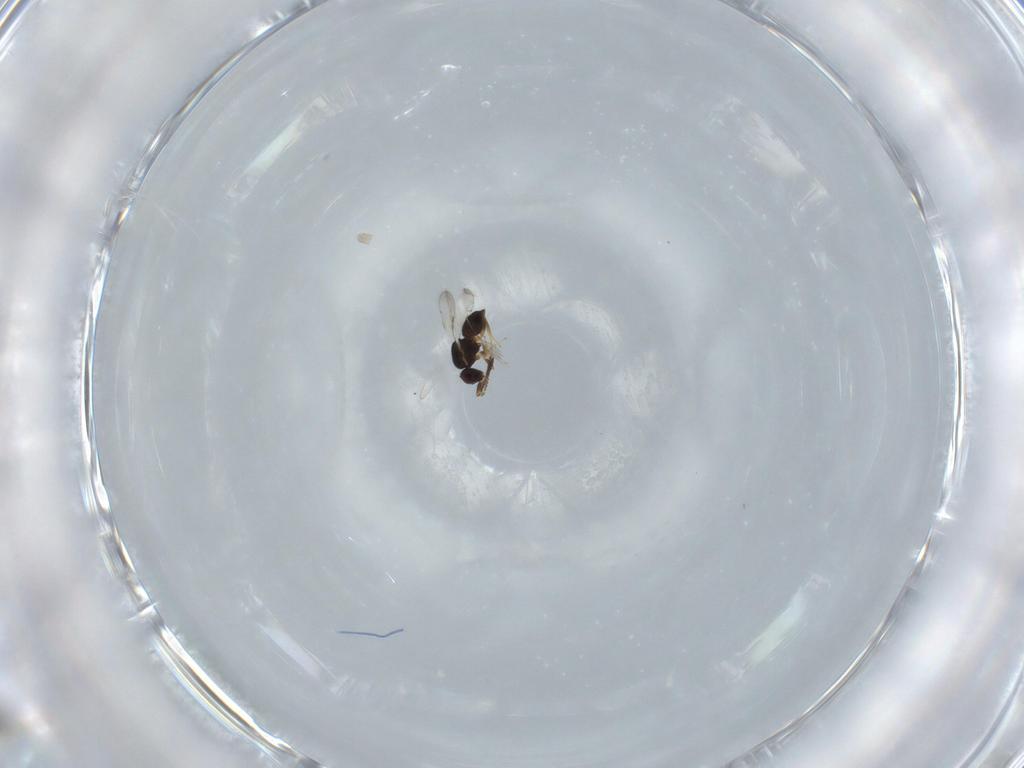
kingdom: Animalia
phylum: Arthropoda
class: Insecta
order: Hymenoptera
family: Ceraphronidae
